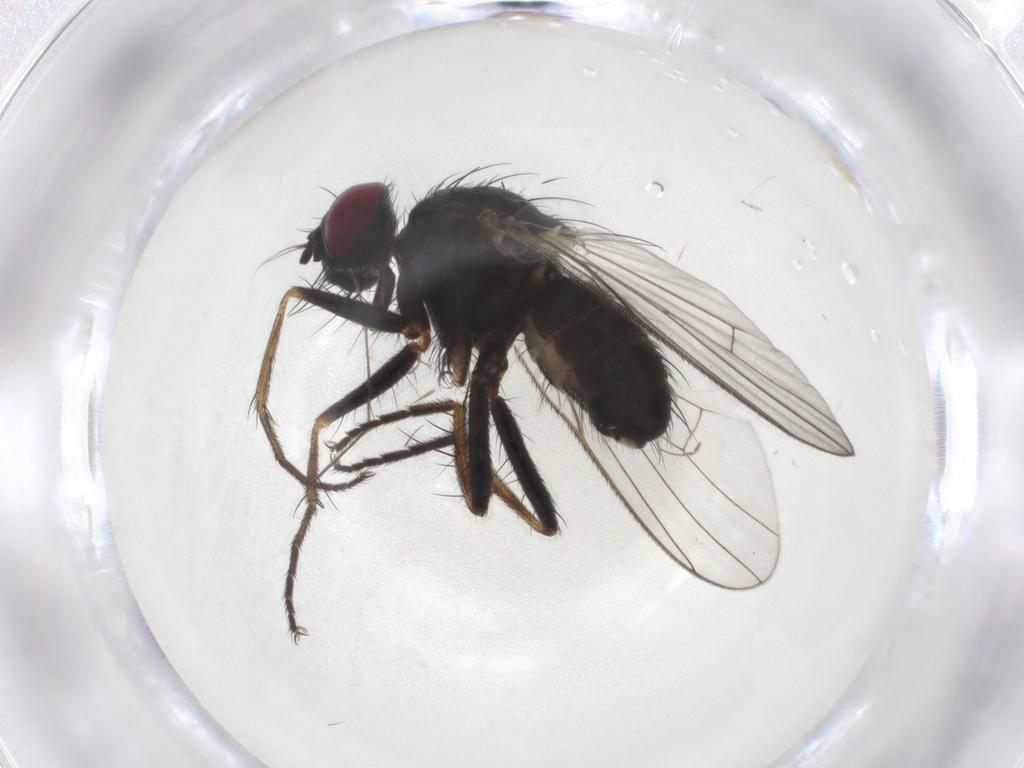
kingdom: Animalia
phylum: Arthropoda
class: Insecta
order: Diptera
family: Muscidae
